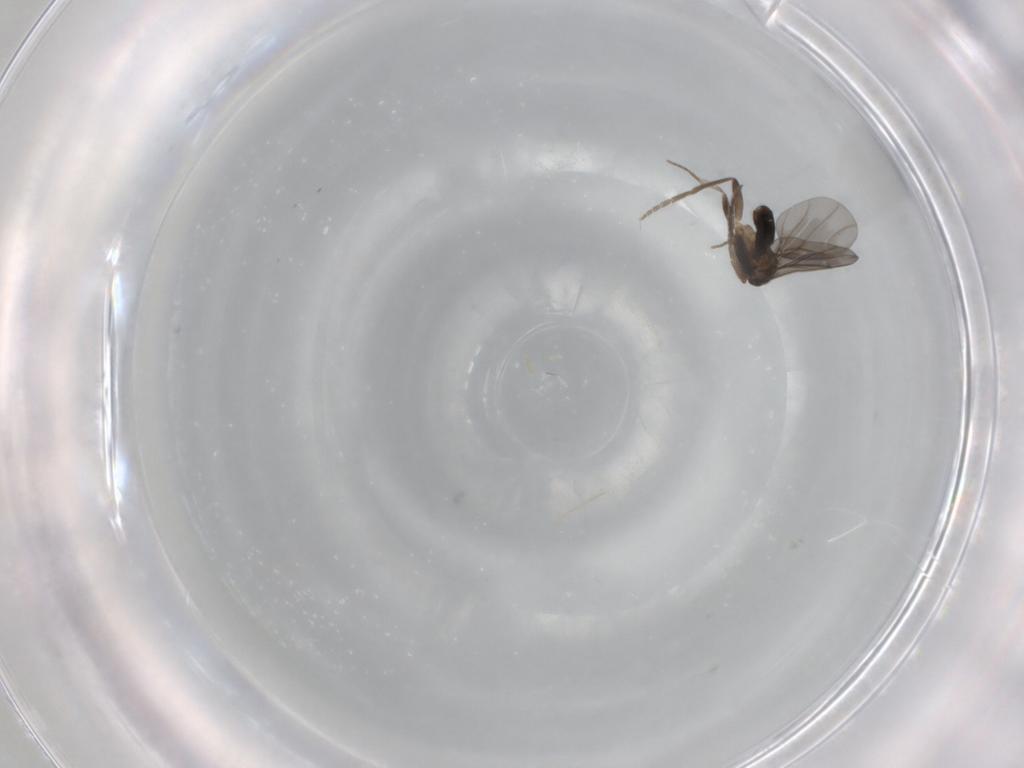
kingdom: Animalia
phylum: Arthropoda
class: Insecta
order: Diptera
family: Phoridae
